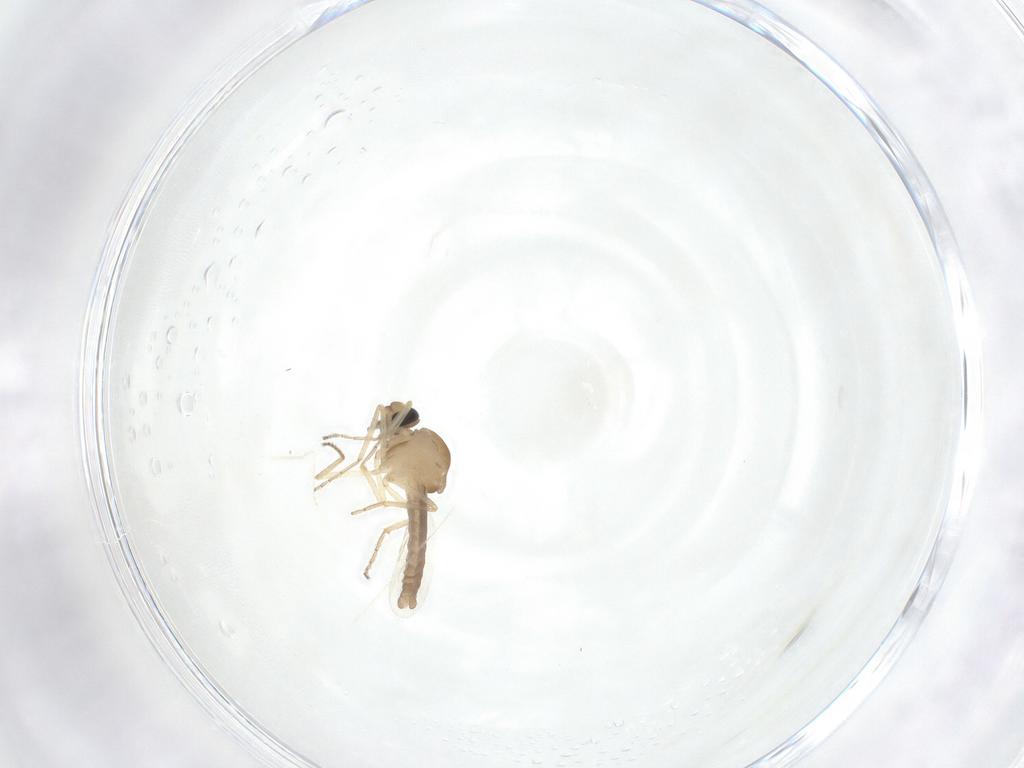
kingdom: Animalia
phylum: Arthropoda
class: Insecta
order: Diptera
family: Ceratopogonidae
